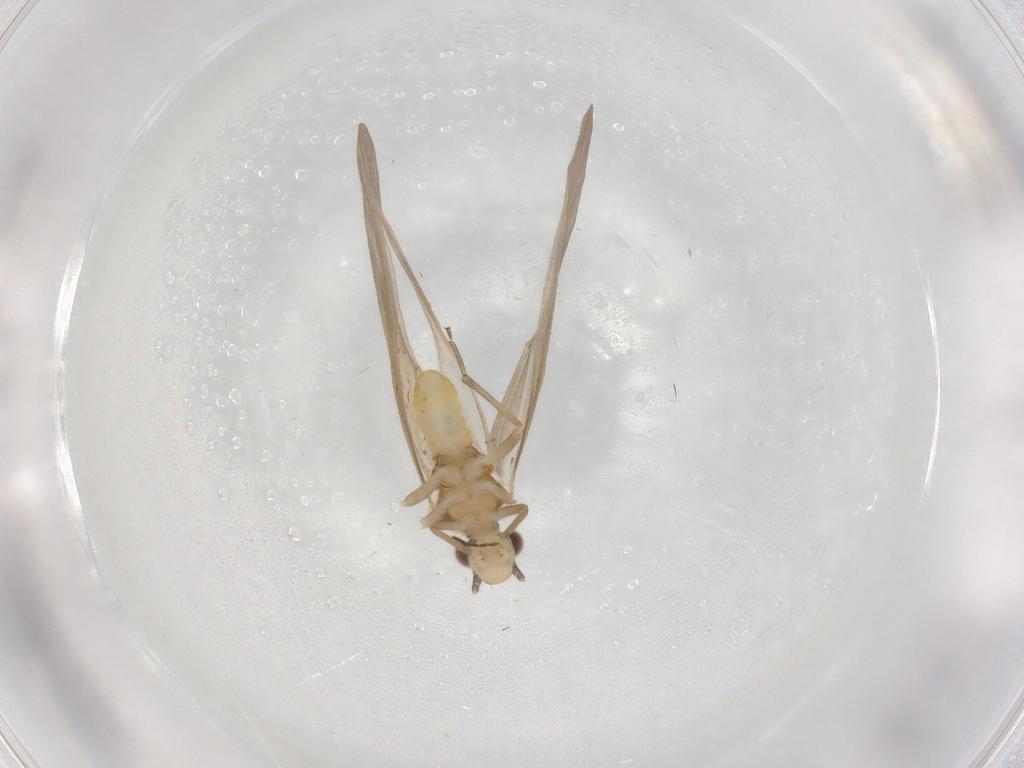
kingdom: Animalia
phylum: Arthropoda
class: Insecta
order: Psocodea
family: Caeciliusidae
